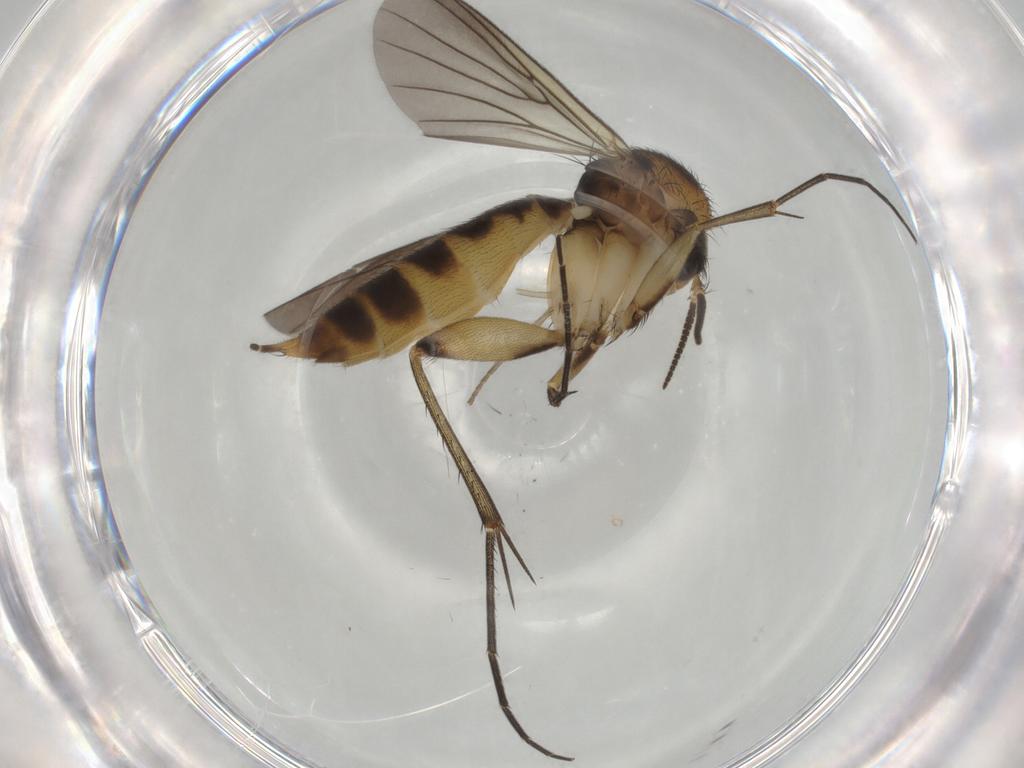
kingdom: Animalia
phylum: Arthropoda
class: Insecta
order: Diptera
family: Mycetophilidae
